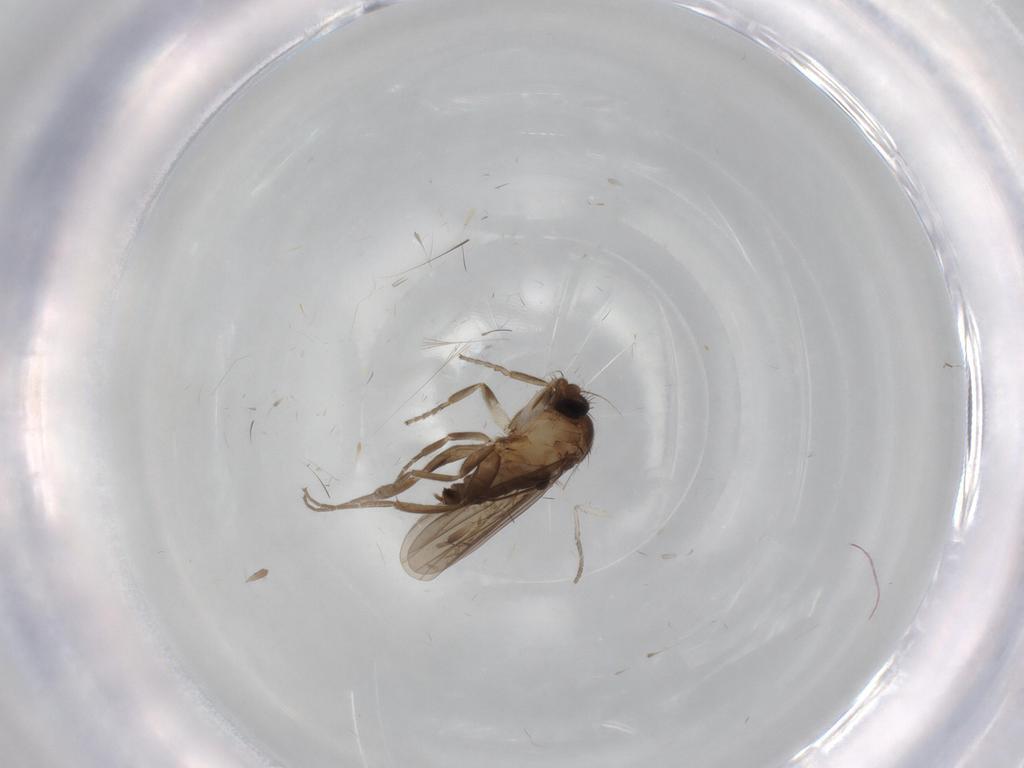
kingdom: Animalia
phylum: Arthropoda
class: Insecta
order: Diptera
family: Limoniidae
